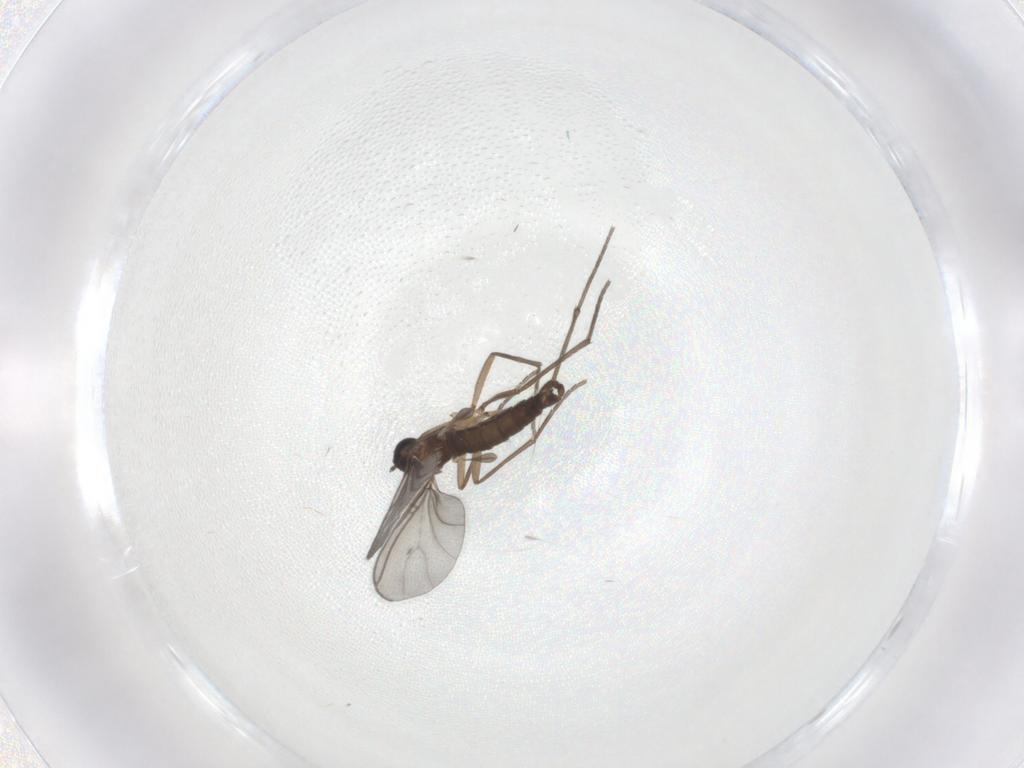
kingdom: Animalia
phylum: Arthropoda
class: Insecta
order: Diptera
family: Sciaridae
